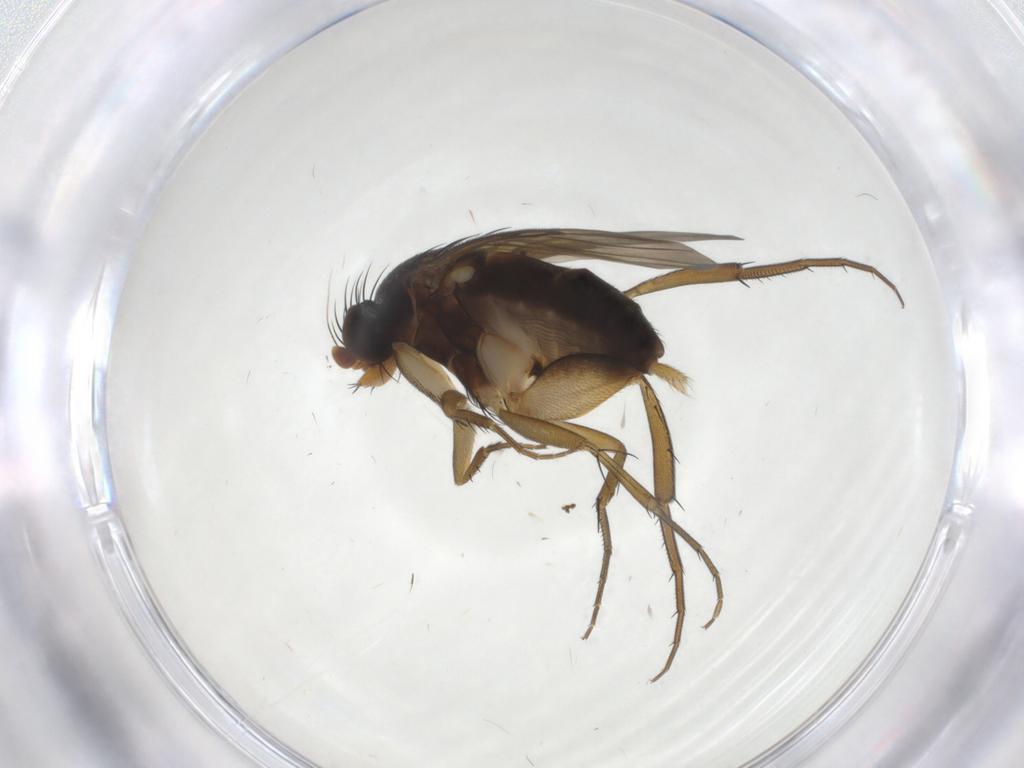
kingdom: Animalia
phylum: Arthropoda
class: Insecta
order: Diptera
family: Phoridae
